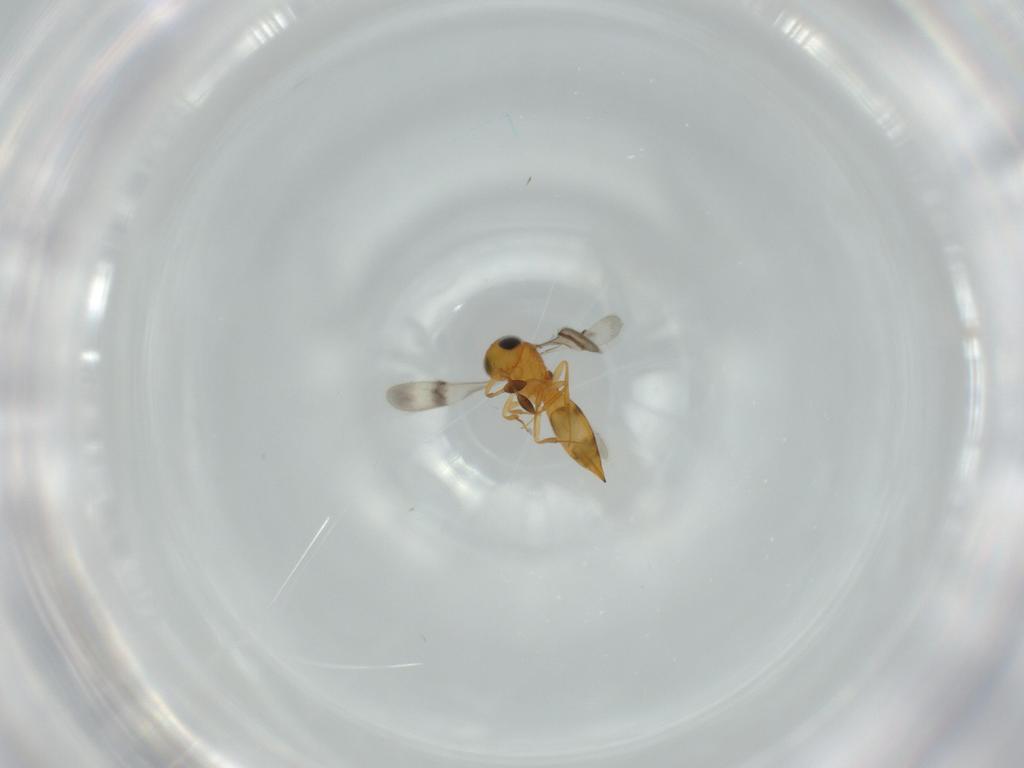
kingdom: Animalia
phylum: Arthropoda
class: Insecta
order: Hymenoptera
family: Scelionidae
